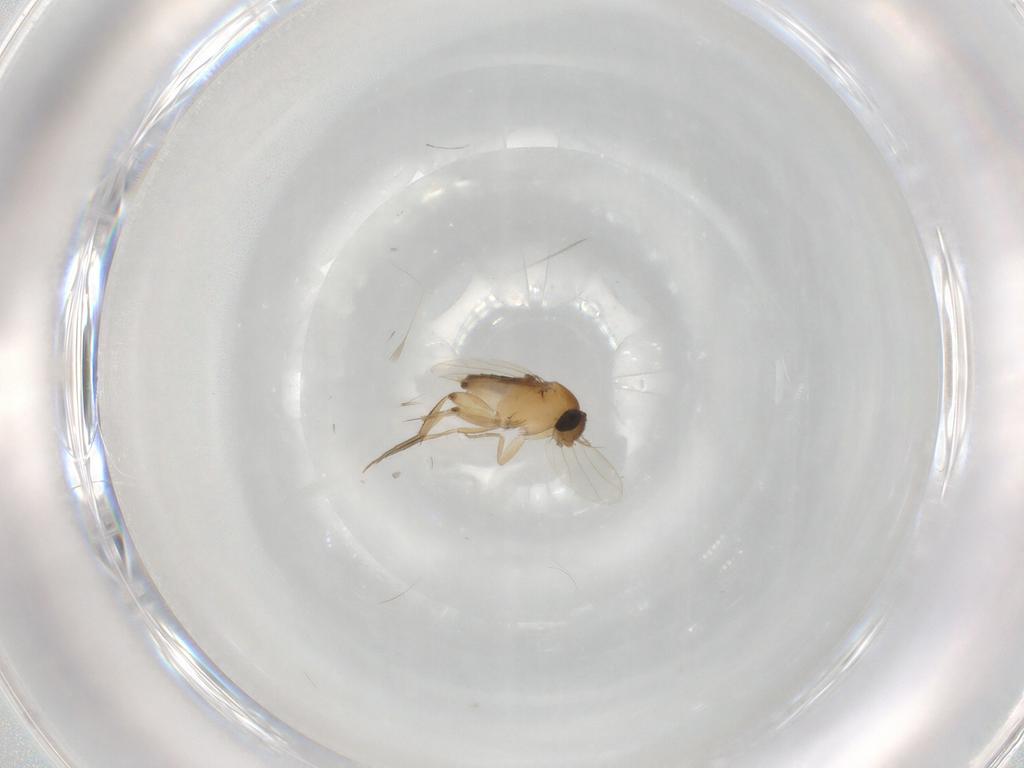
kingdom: Animalia
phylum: Arthropoda
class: Insecta
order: Diptera
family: Phoridae
